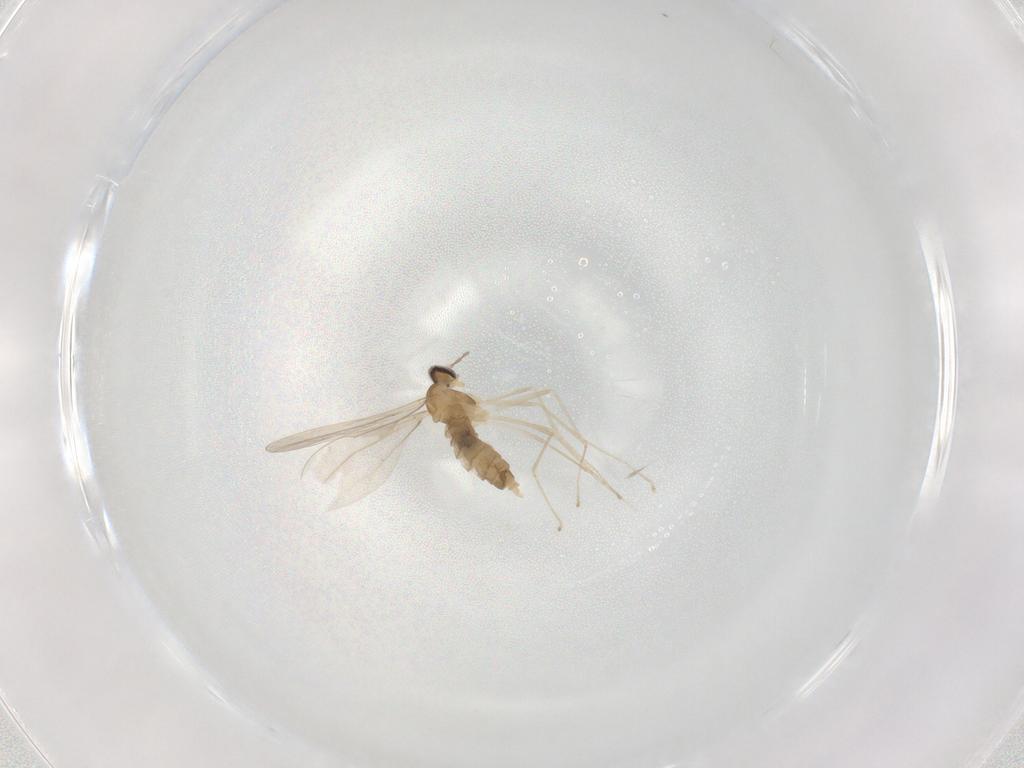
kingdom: Animalia
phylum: Arthropoda
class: Insecta
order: Diptera
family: Cecidomyiidae
